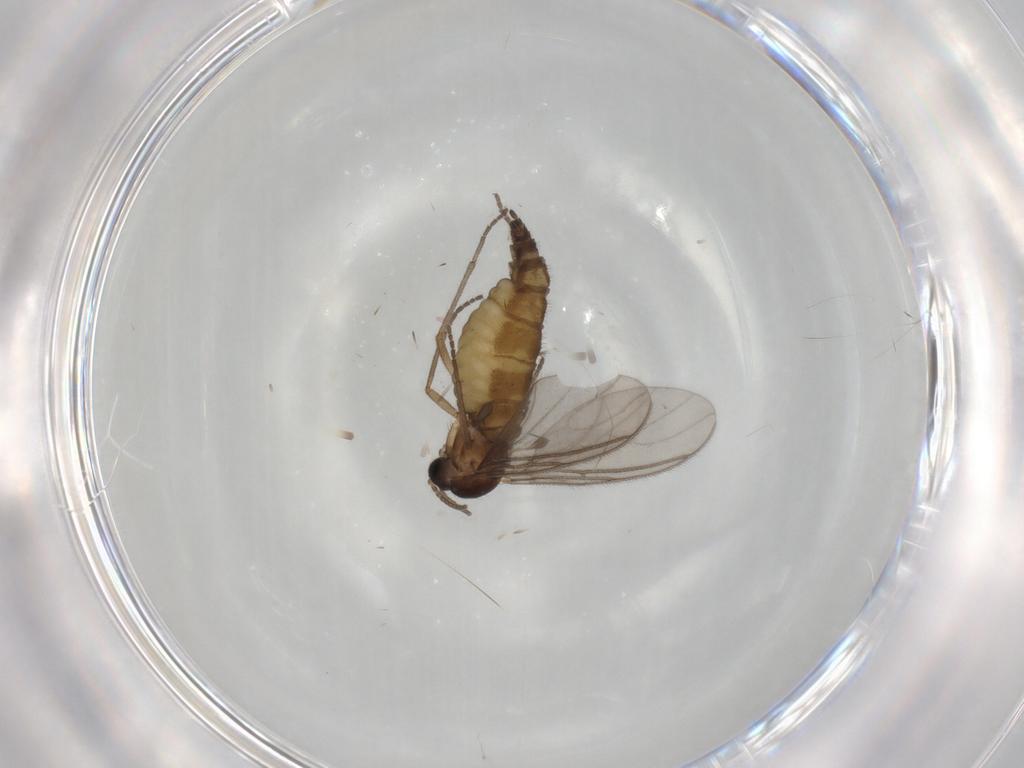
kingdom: Animalia
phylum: Arthropoda
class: Insecta
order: Diptera
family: Sciaridae
